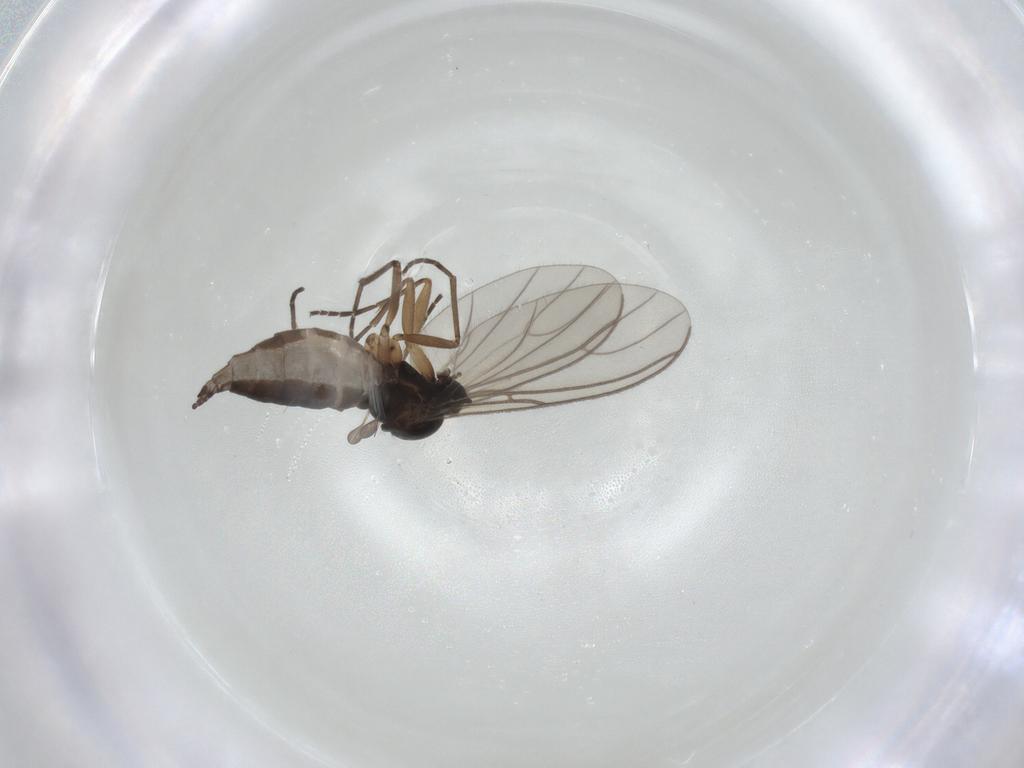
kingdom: Animalia
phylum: Arthropoda
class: Insecta
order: Diptera
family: Sciaridae
